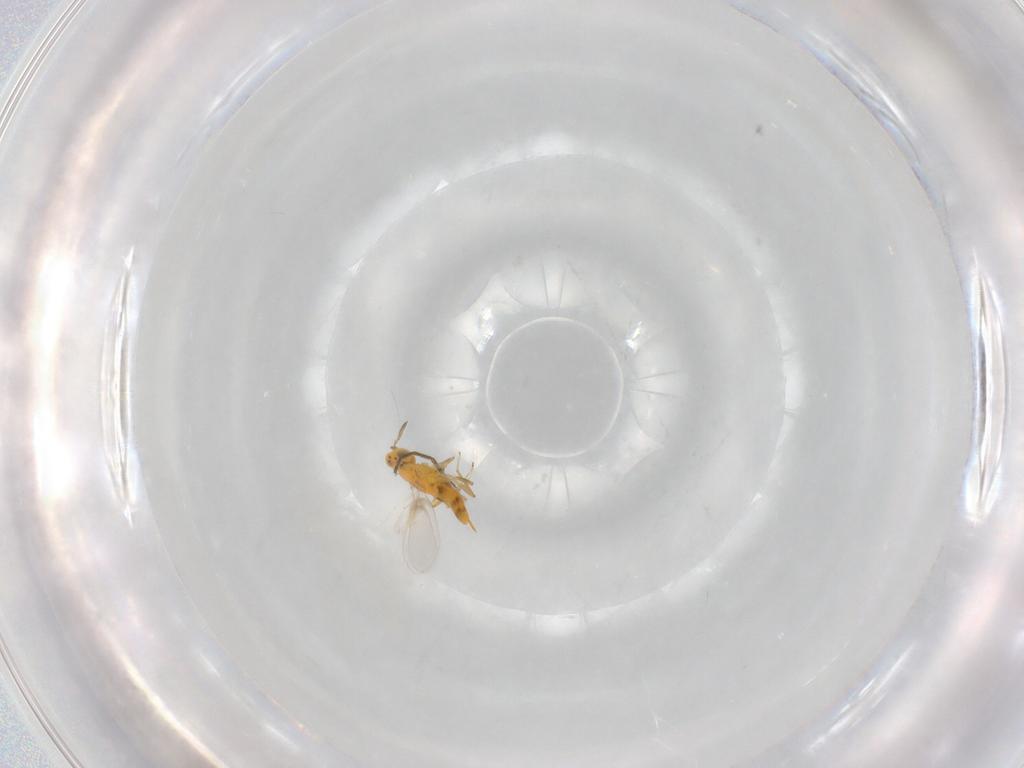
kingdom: Animalia
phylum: Arthropoda
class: Insecta
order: Hymenoptera
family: Aphelinidae
